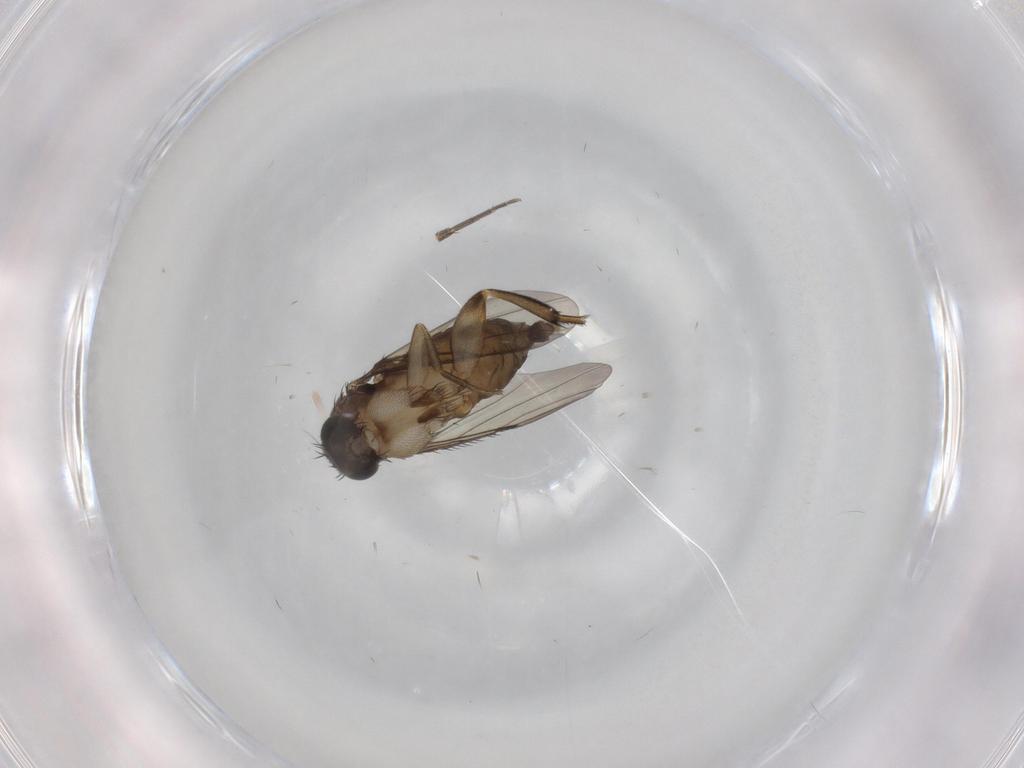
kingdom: Animalia
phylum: Arthropoda
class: Insecta
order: Diptera
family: Phoridae
